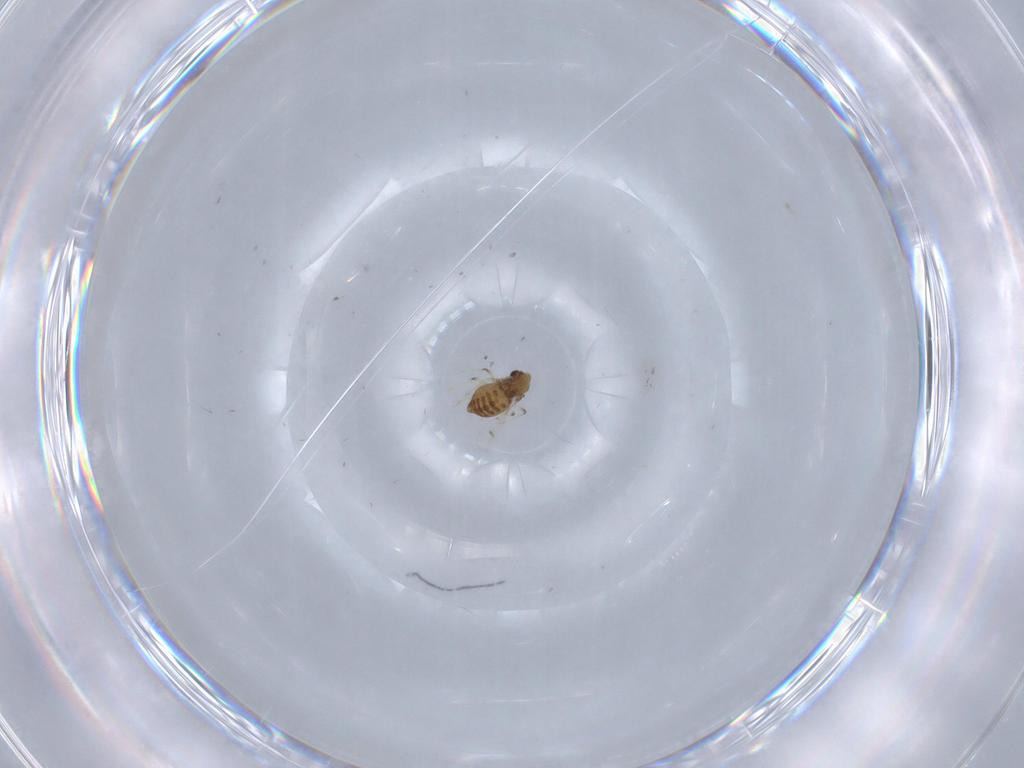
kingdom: Animalia
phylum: Arthropoda
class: Insecta
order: Diptera
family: Chironomidae
